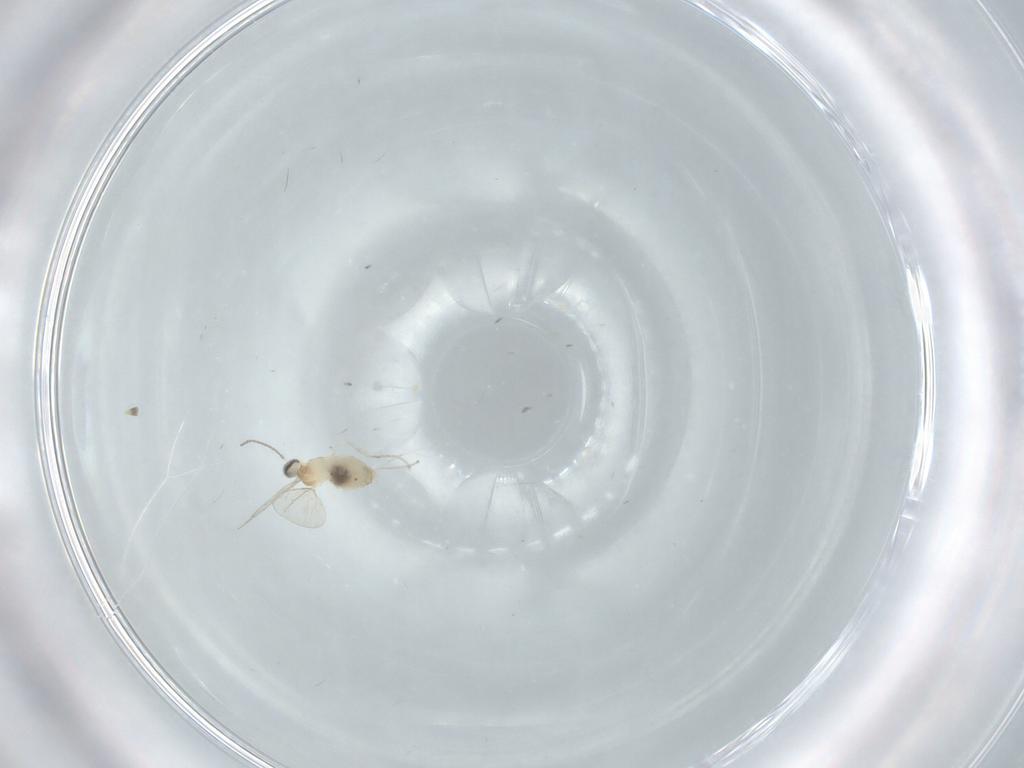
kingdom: Animalia
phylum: Arthropoda
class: Insecta
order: Diptera
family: Cecidomyiidae
